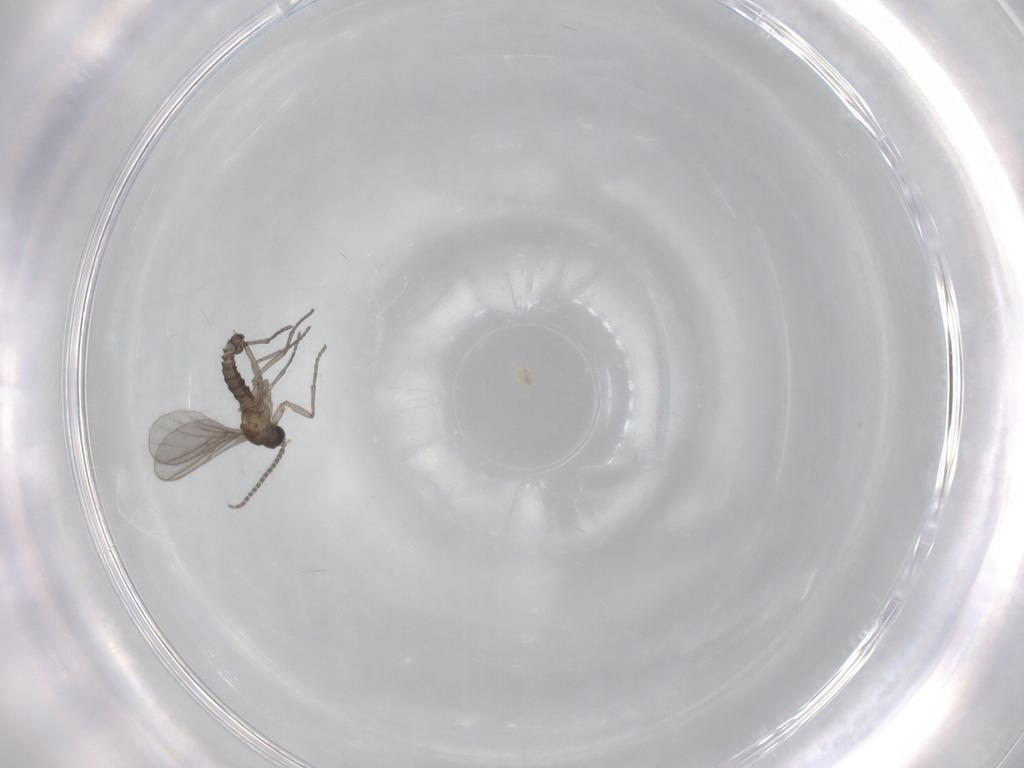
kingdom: Animalia
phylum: Arthropoda
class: Insecta
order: Diptera
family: Sciaridae
